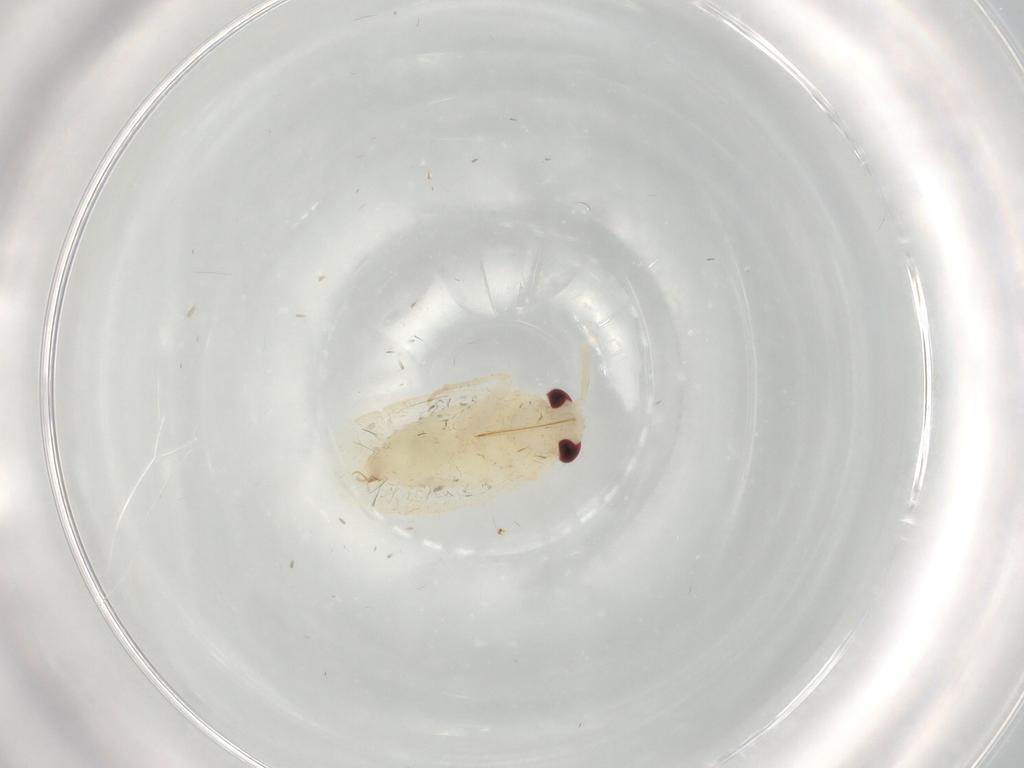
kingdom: Animalia
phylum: Arthropoda
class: Insecta
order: Hemiptera
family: Miridae
